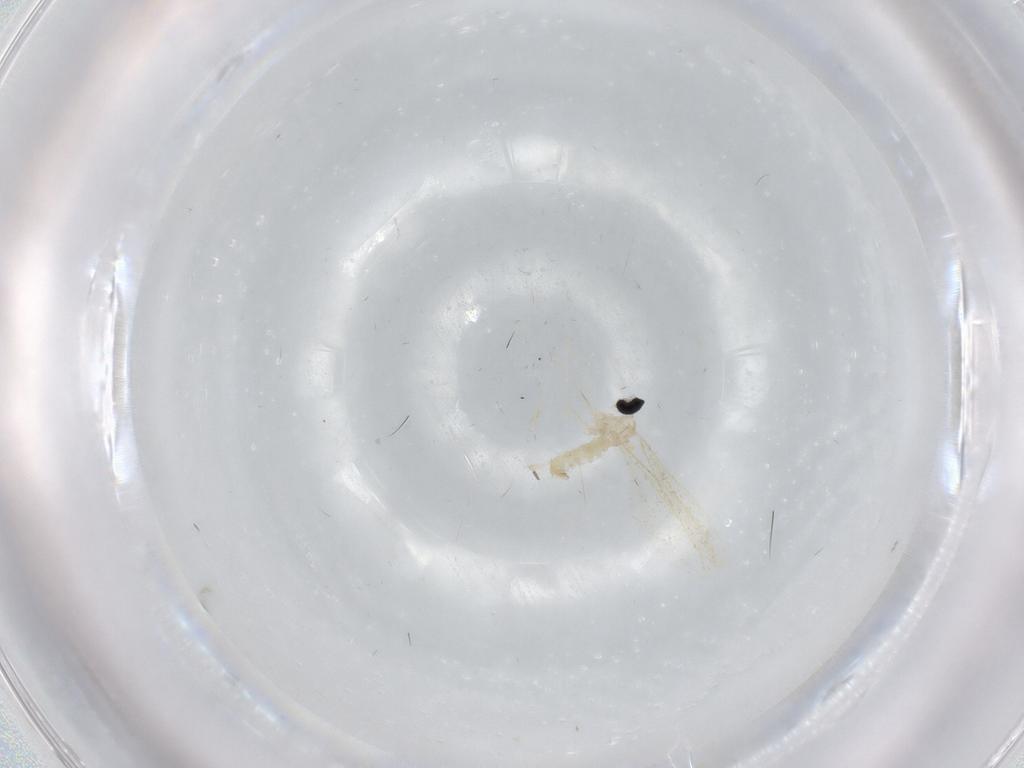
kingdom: Animalia
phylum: Arthropoda
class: Insecta
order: Diptera
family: Cecidomyiidae
